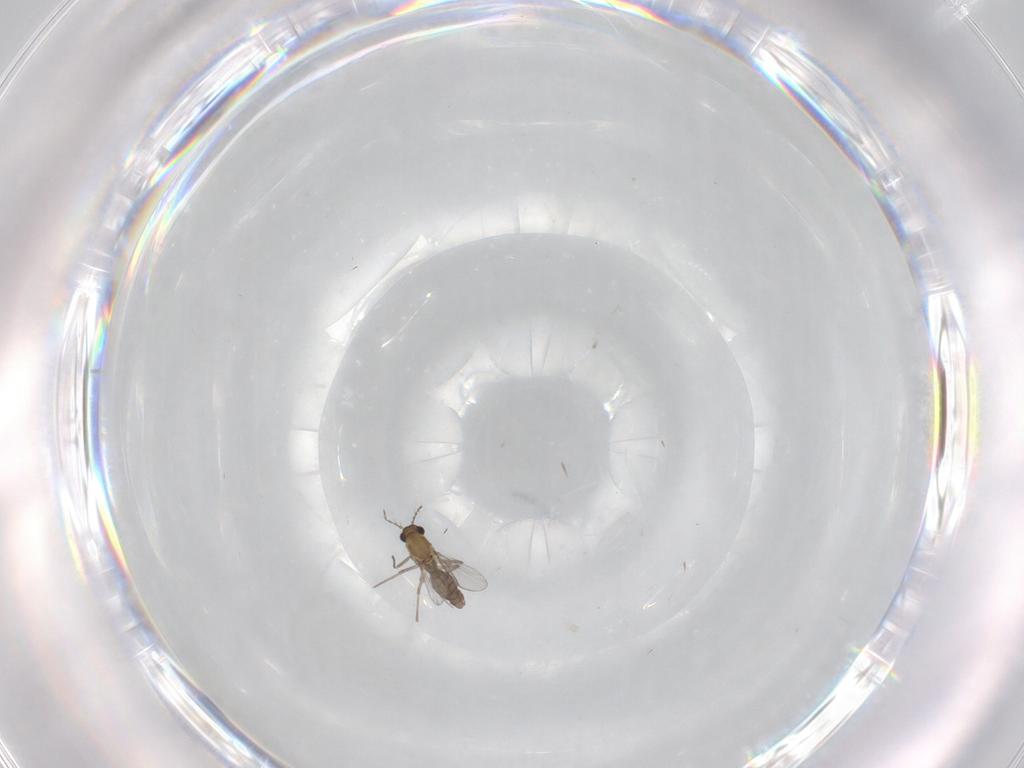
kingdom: Animalia
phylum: Arthropoda
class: Insecta
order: Diptera
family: Chironomidae
